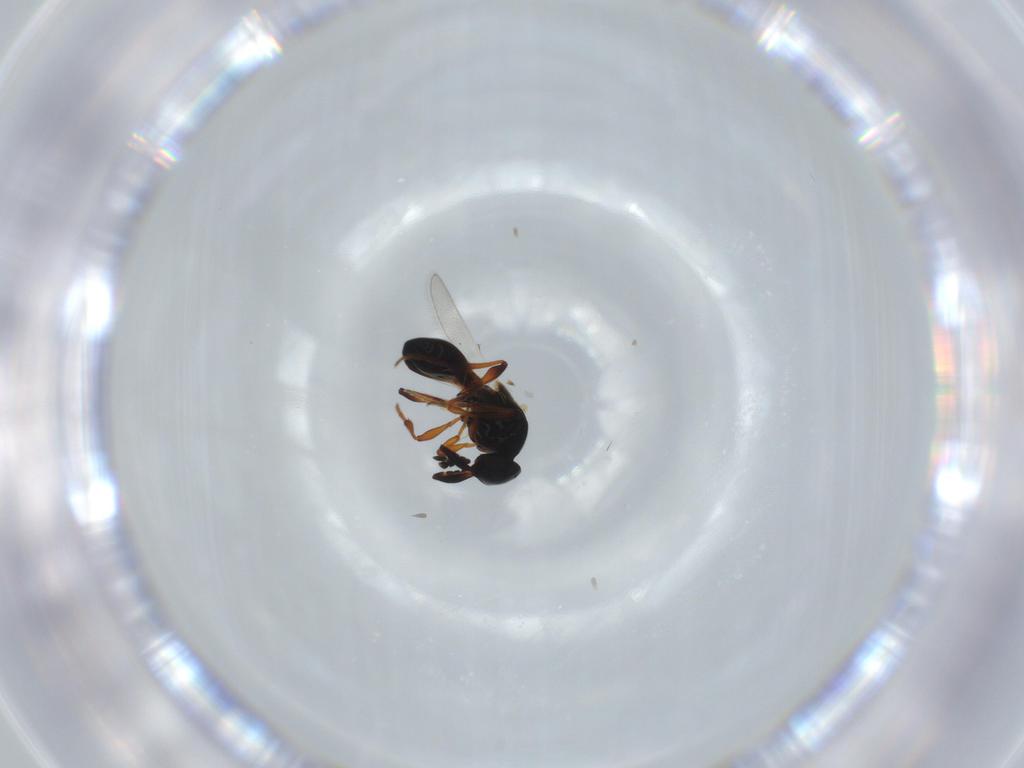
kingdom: Animalia
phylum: Arthropoda
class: Insecta
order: Hymenoptera
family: Platygastridae
